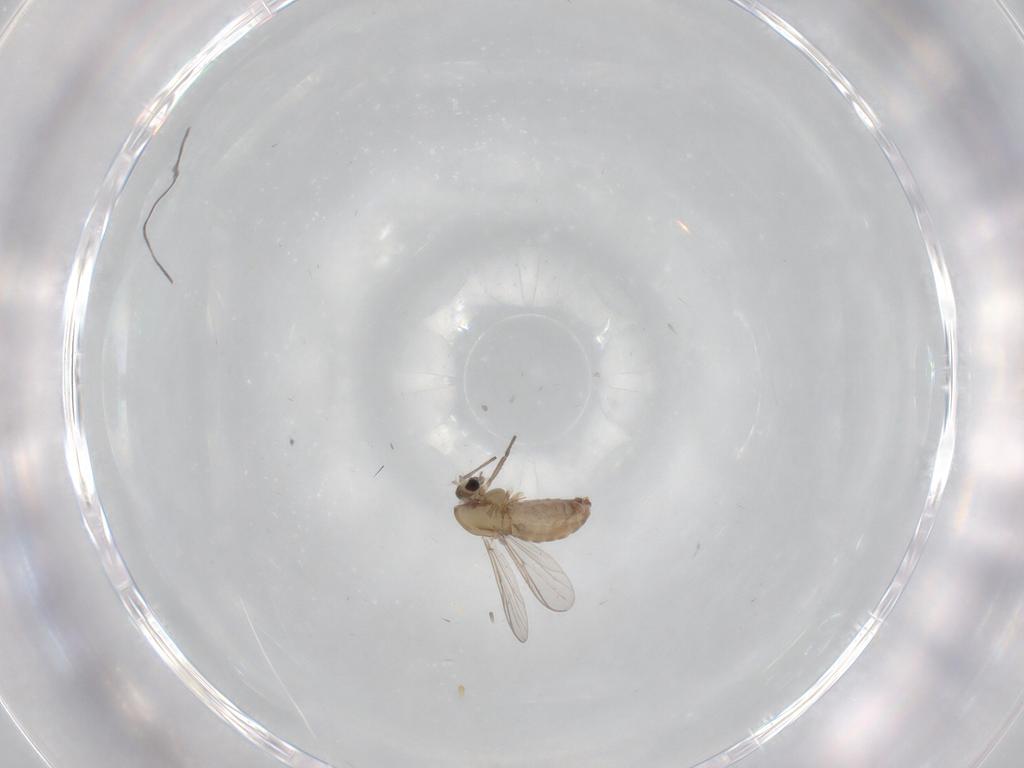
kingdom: Animalia
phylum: Arthropoda
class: Insecta
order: Diptera
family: Chironomidae
